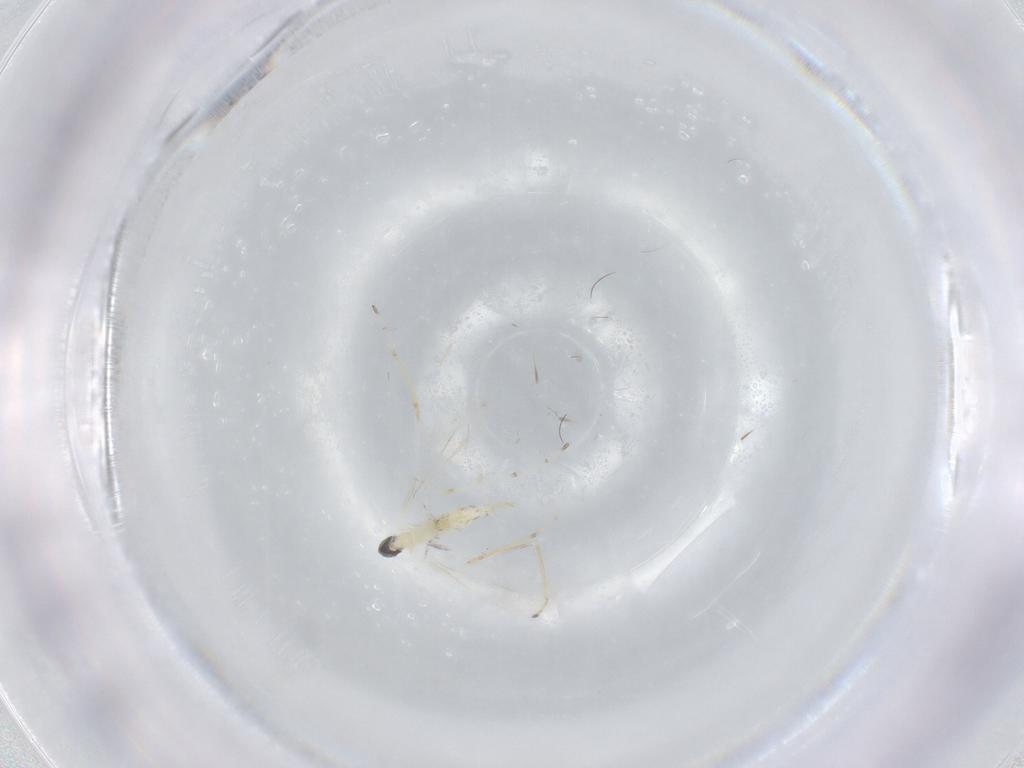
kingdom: Animalia
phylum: Arthropoda
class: Insecta
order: Diptera
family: Cecidomyiidae
